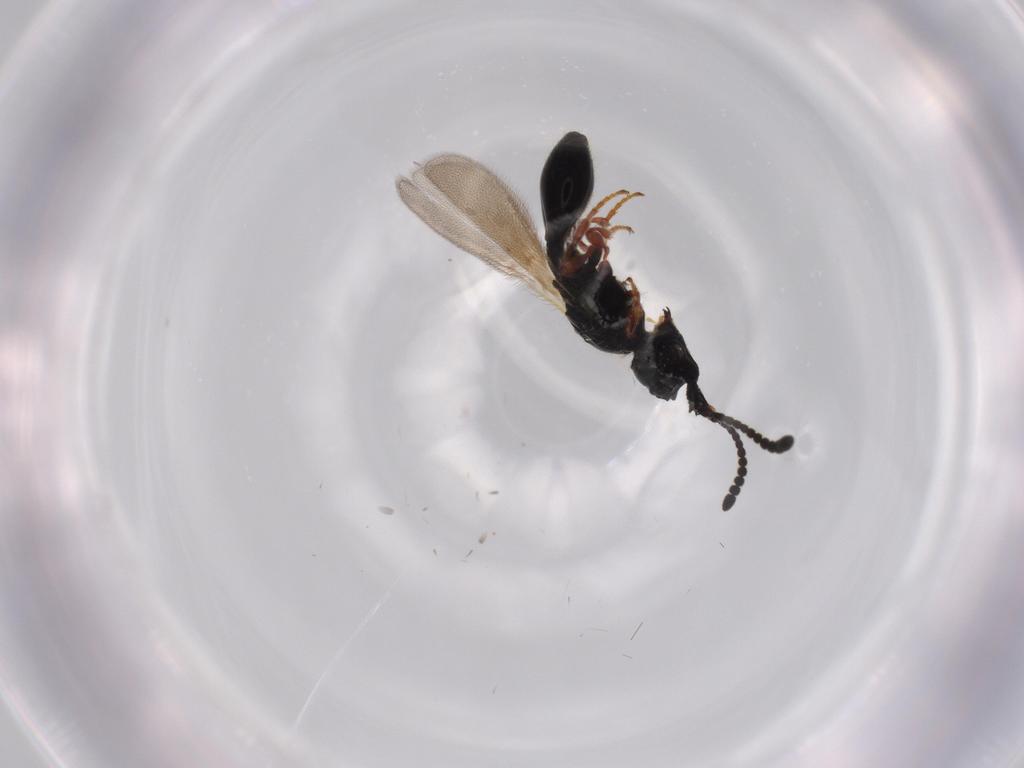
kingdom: Animalia
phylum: Arthropoda
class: Insecta
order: Hymenoptera
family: Diapriidae
